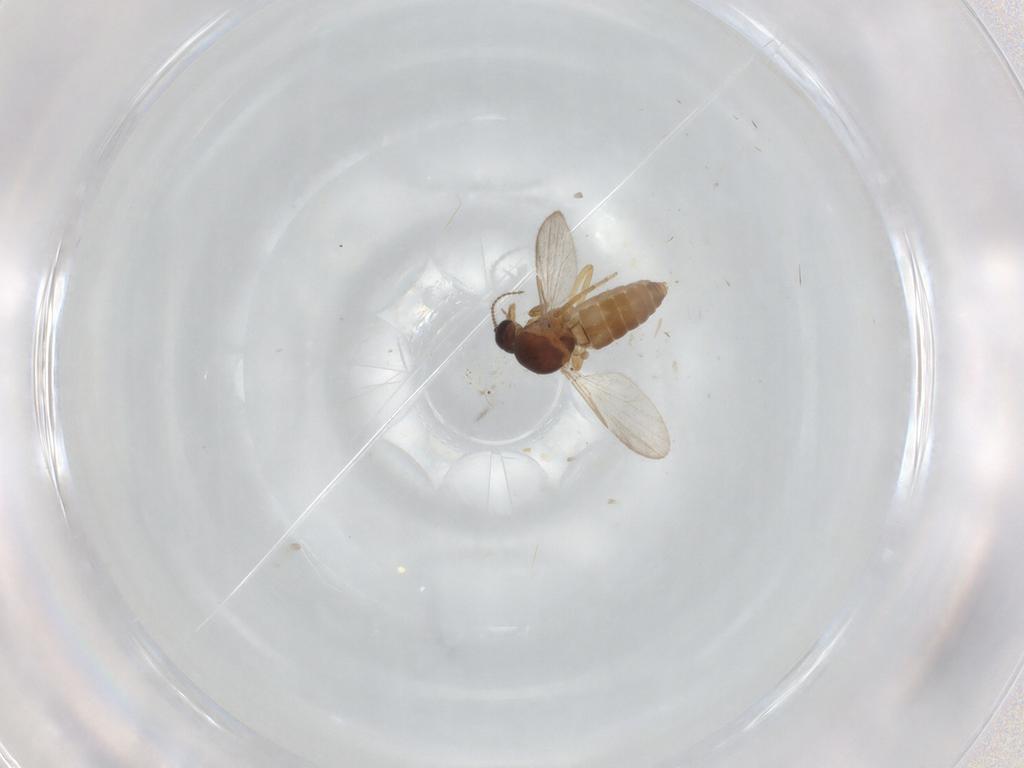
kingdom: Animalia
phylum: Arthropoda
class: Insecta
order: Diptera
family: Ceratopogonidae
